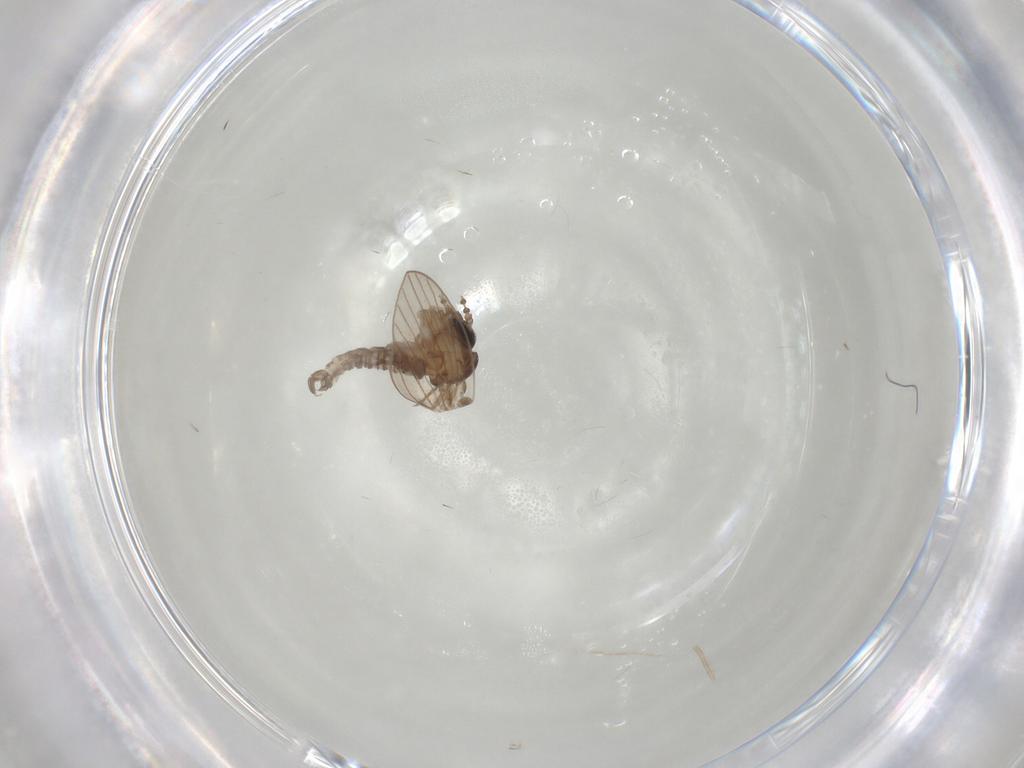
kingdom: Animalia
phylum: Arthropoda
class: Insecta
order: Diptera
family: Psychodidae
